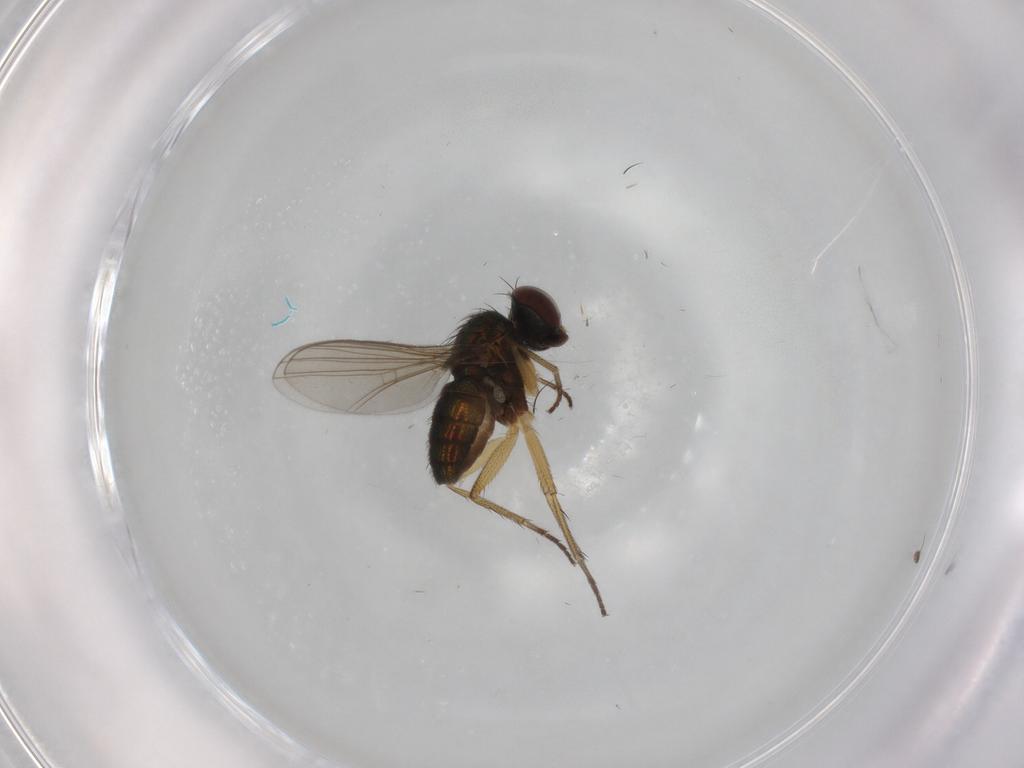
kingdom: Animalia
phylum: Arthropoda
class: Insecta
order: Diptera
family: Dolichopodidae
